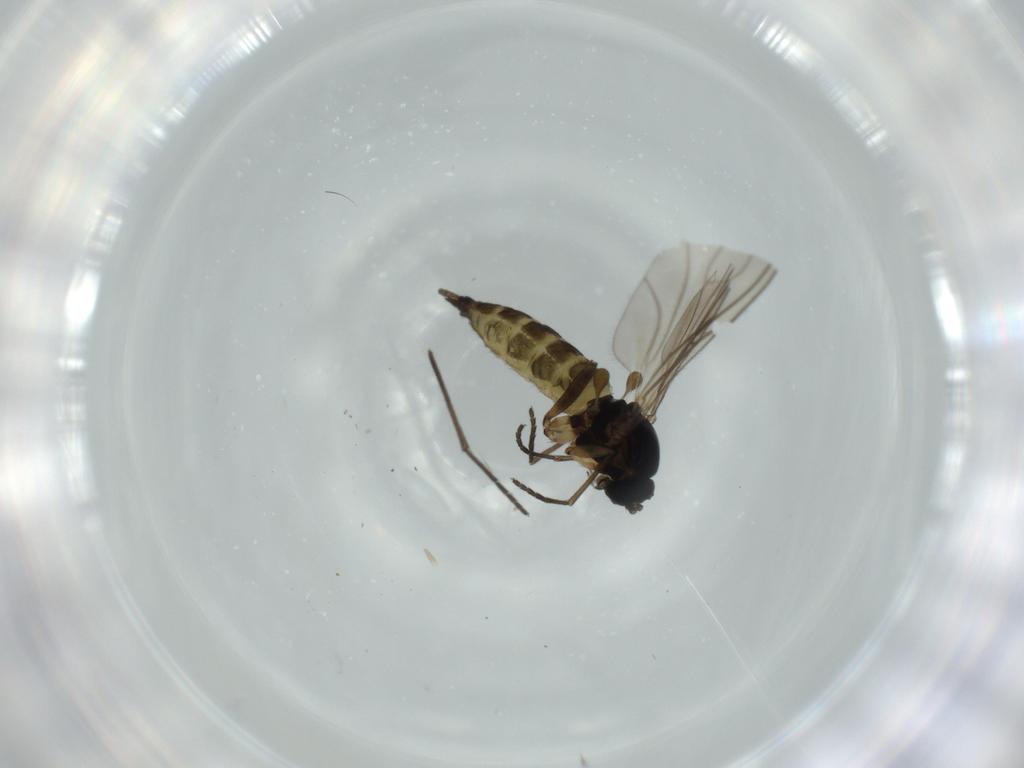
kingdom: Animalia
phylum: Arthropoda
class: Insecta
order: Diptera
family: Sciaridae
